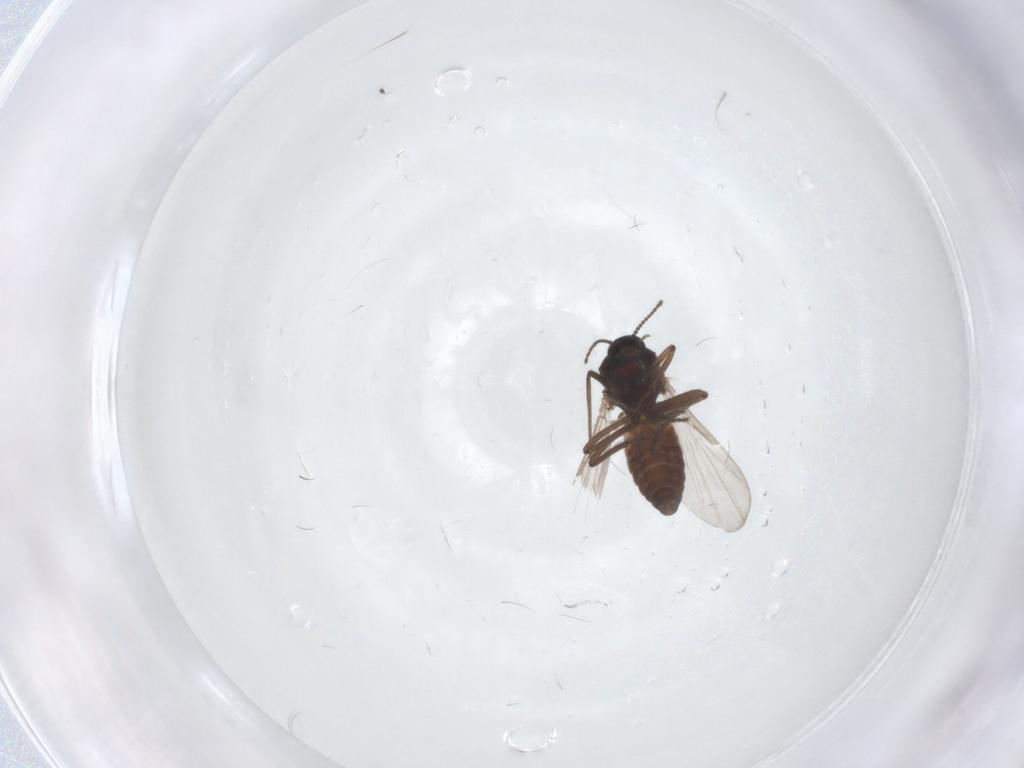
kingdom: Animalia
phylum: Arthropoda
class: Insecta
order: Diptera
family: Ceratopogonidae
